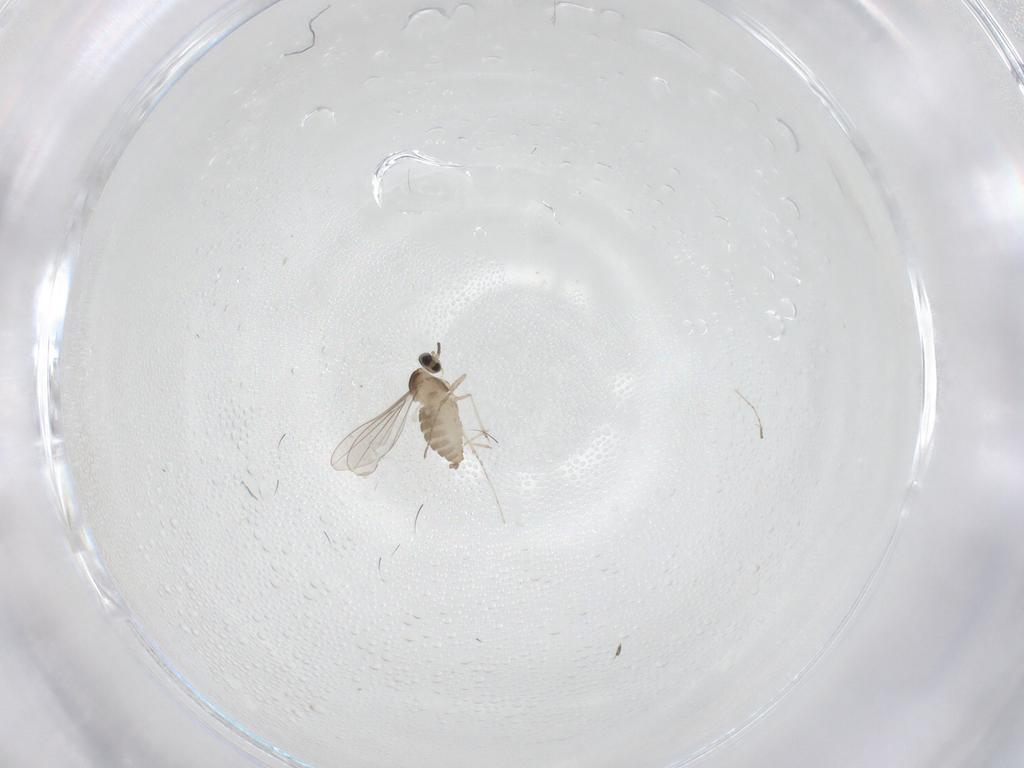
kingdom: Animalia
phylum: Arthropoda
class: Insecta
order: Diptera
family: Cecidomyiidae
